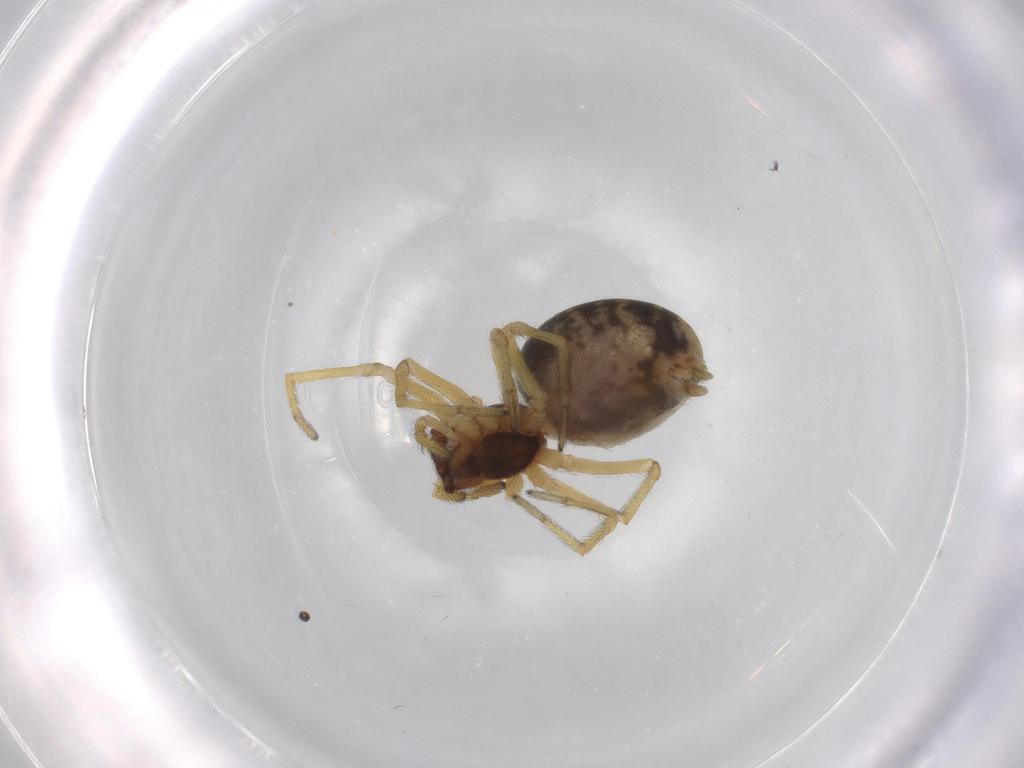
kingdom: Animalia
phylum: Arthropoda
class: Arachnida
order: Araneae
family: Dictynidae
